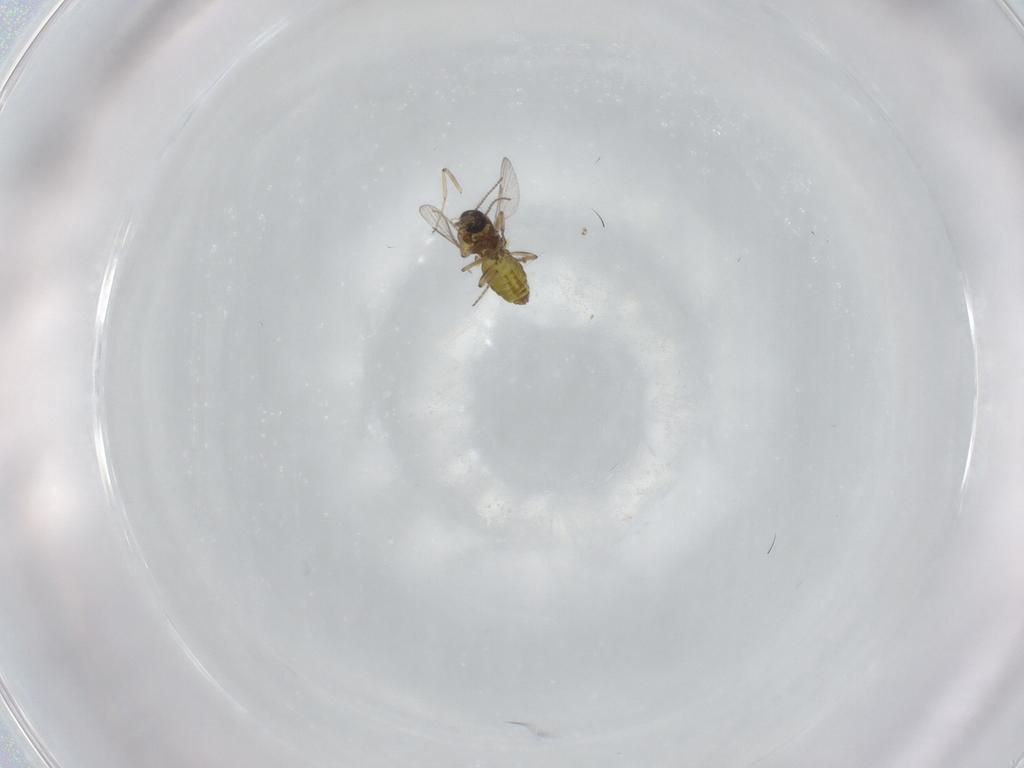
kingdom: Animalia
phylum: Arthropoda
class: Insecta
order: Diptera
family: Ceratopogonidae
